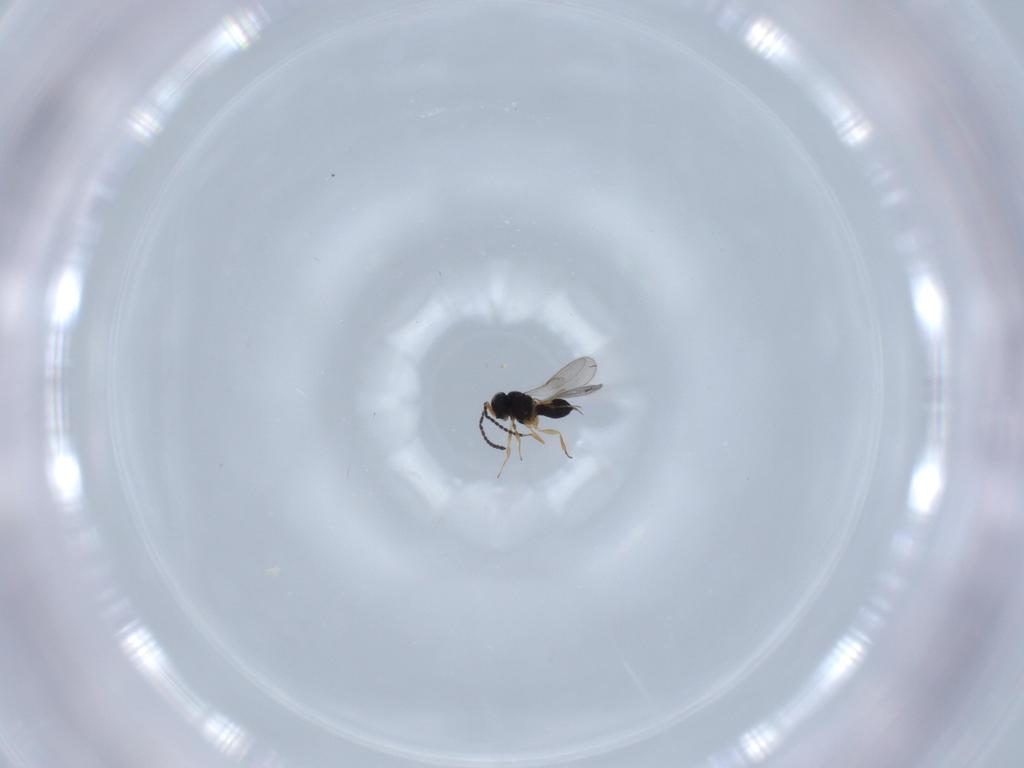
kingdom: Animalia
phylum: Arthropoda
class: Insecta
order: Hymenoptera
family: Scelionidae
